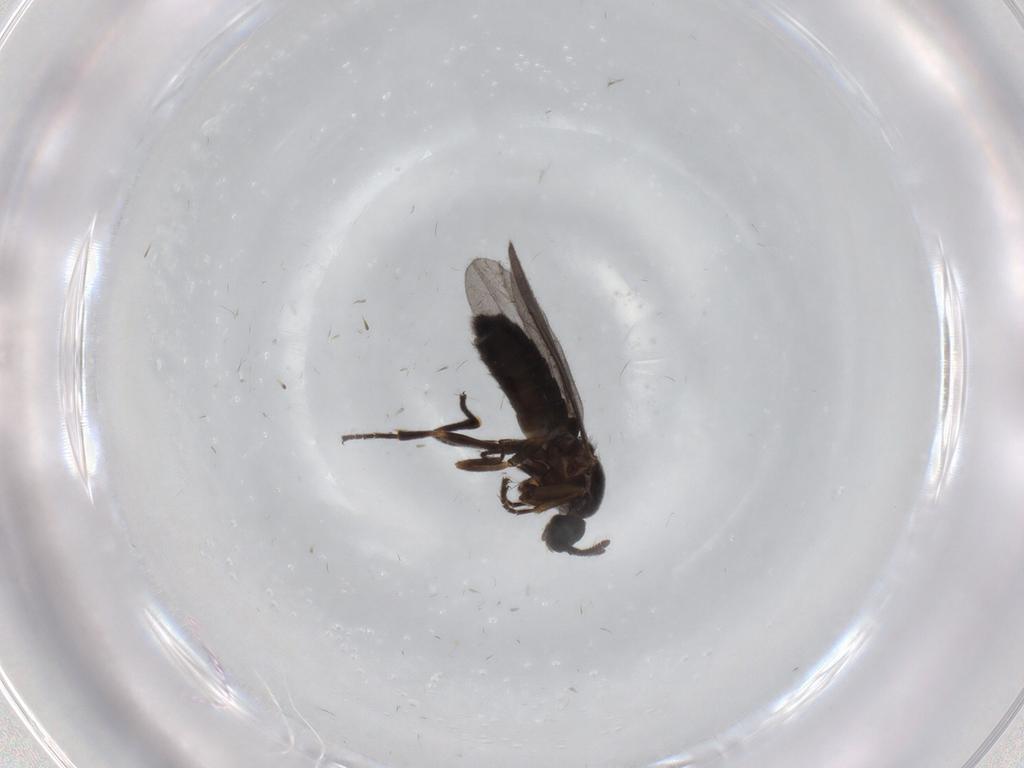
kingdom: Animalia
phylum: Arthropoda
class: Insecta
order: Diptera
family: Scatopsidae
